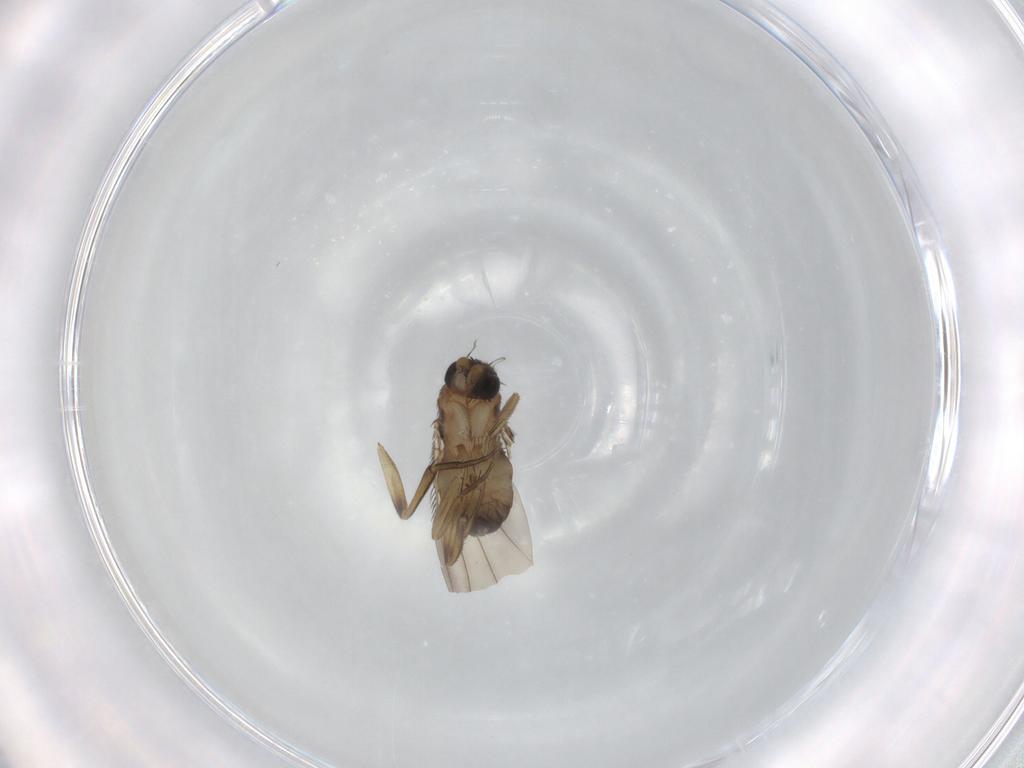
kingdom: Animalia
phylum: Arthropoda
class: Insecta
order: Diptera
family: Phoridae
